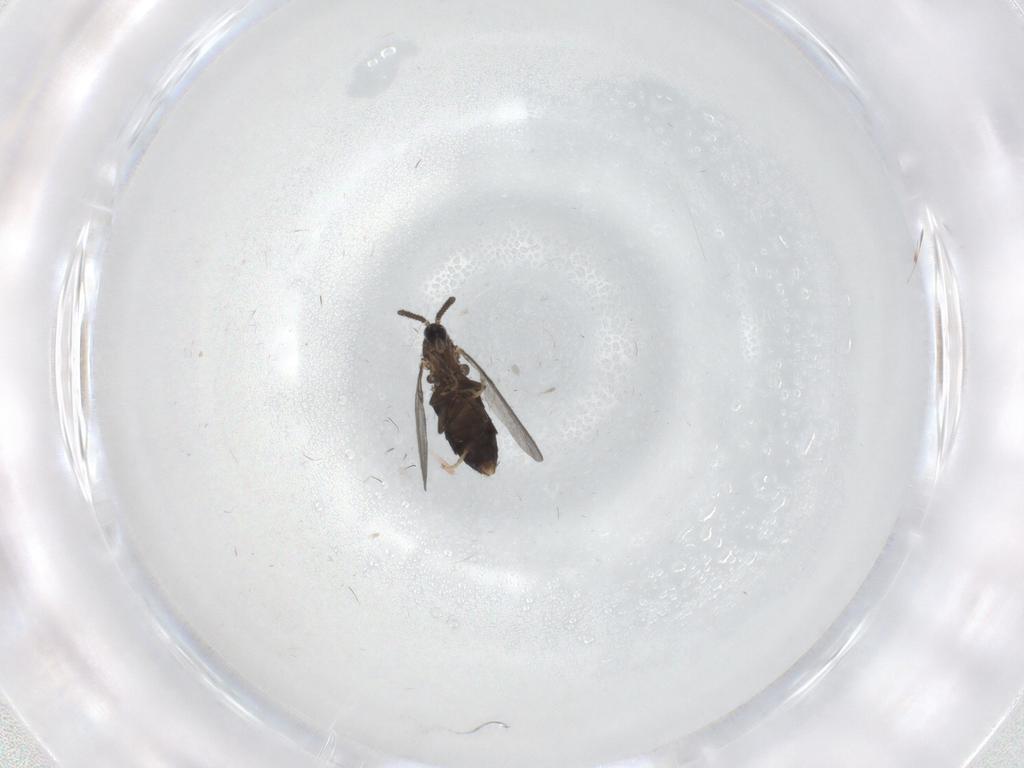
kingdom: Animalia
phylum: Arthropoda
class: Insecta
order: Diptera
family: Scatopsidae
